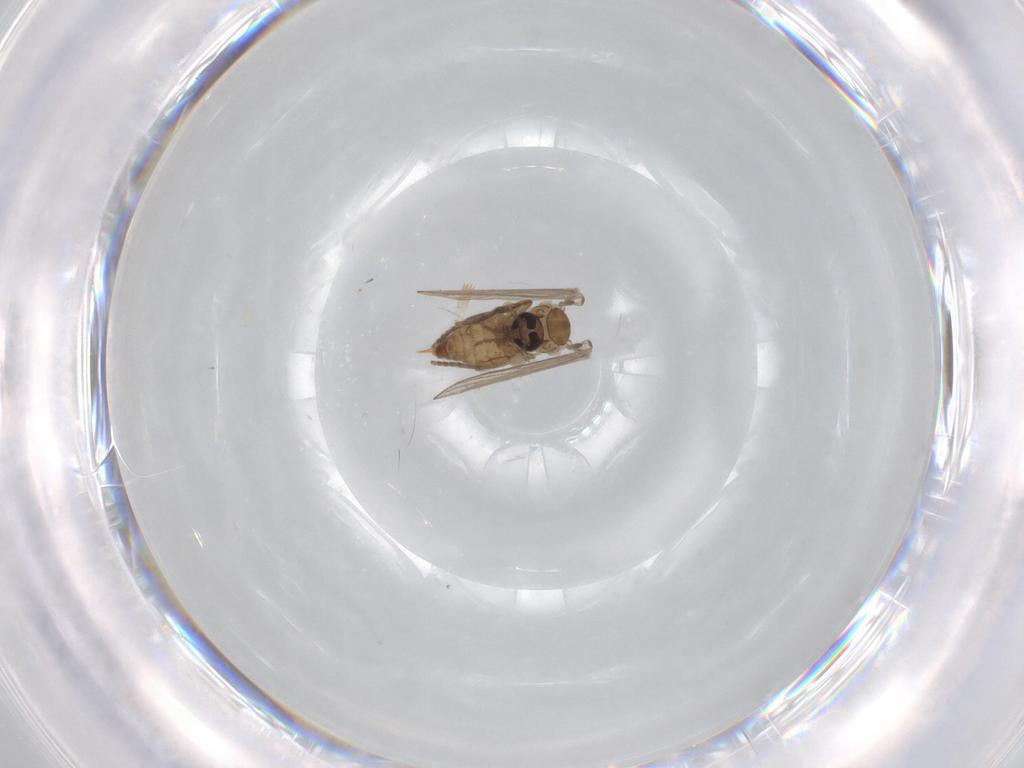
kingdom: Animalia
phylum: Arthropoda
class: Insecta
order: Diptera
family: Psychodidae
